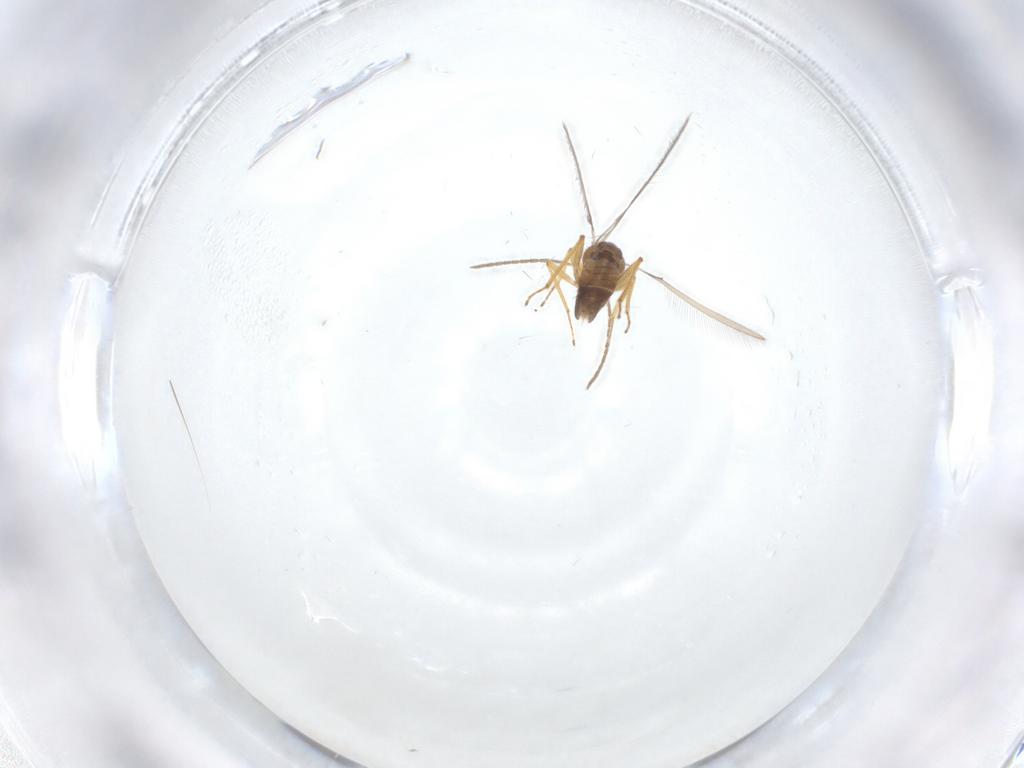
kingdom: Animalia
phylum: Arthropoda
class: Insecta
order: Hymenoptera
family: Mymaridae
